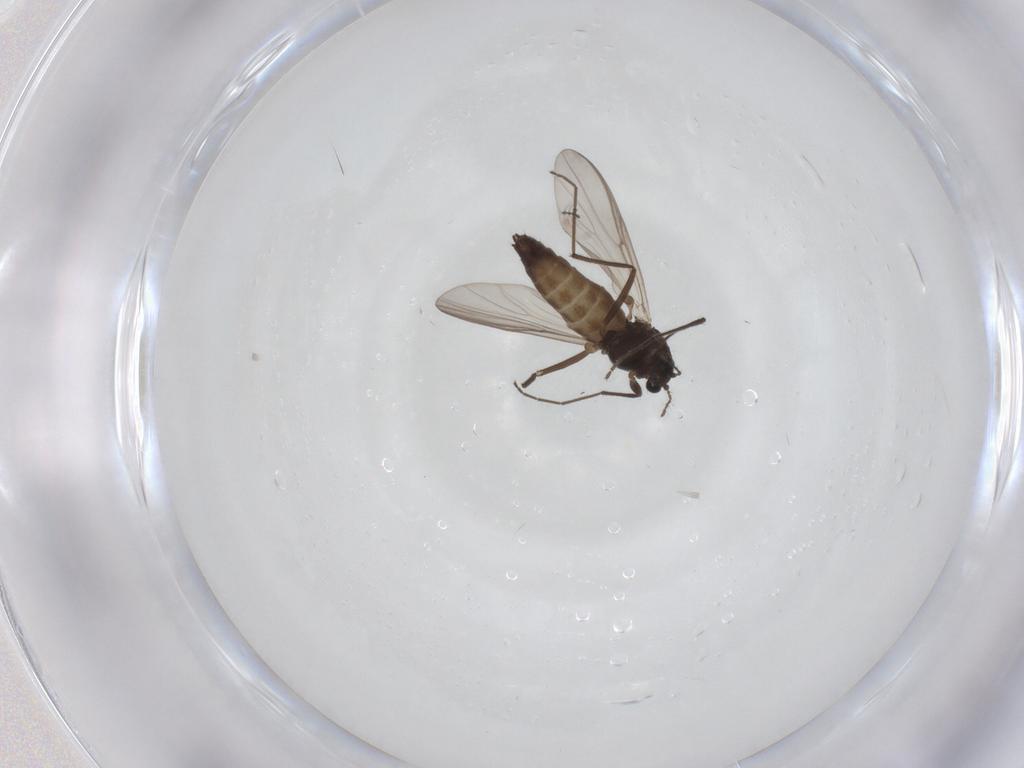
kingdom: Animalia
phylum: Arthropoda
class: Insecta
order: Diptera
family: Chironomidae
